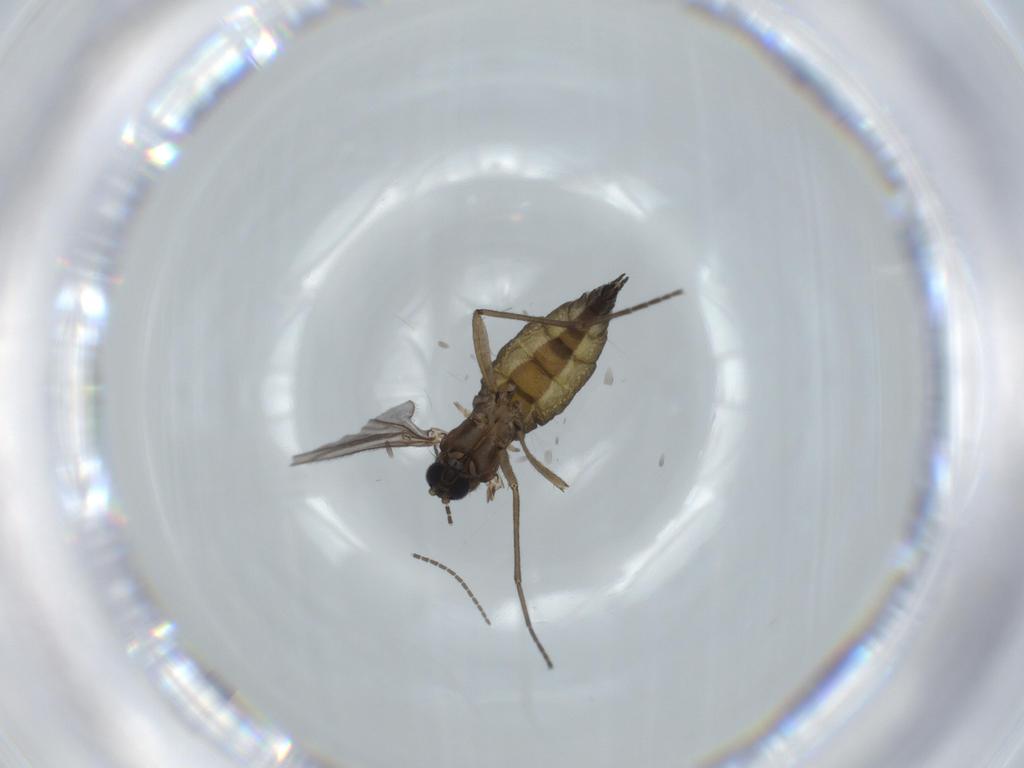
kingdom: Animalia
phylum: Arthropoda
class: Insecta
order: Diptera
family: Sciaridae
